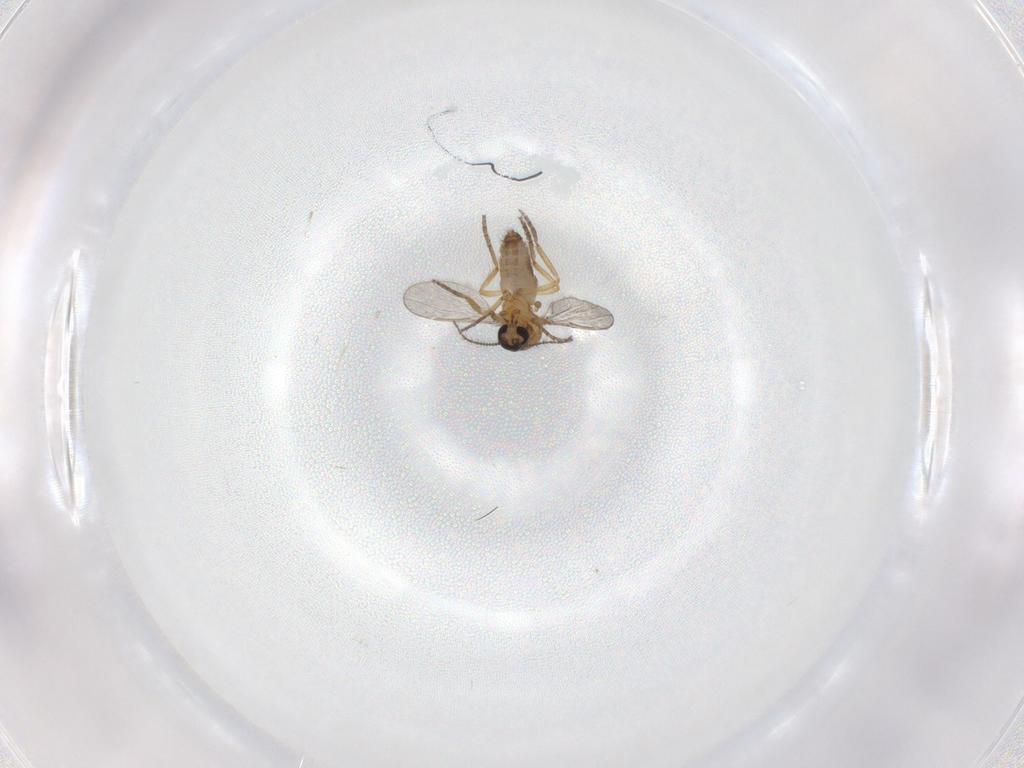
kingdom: Animalia
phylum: Arthropoda
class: Insecta
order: Diptera
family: Ceratopogonidae
